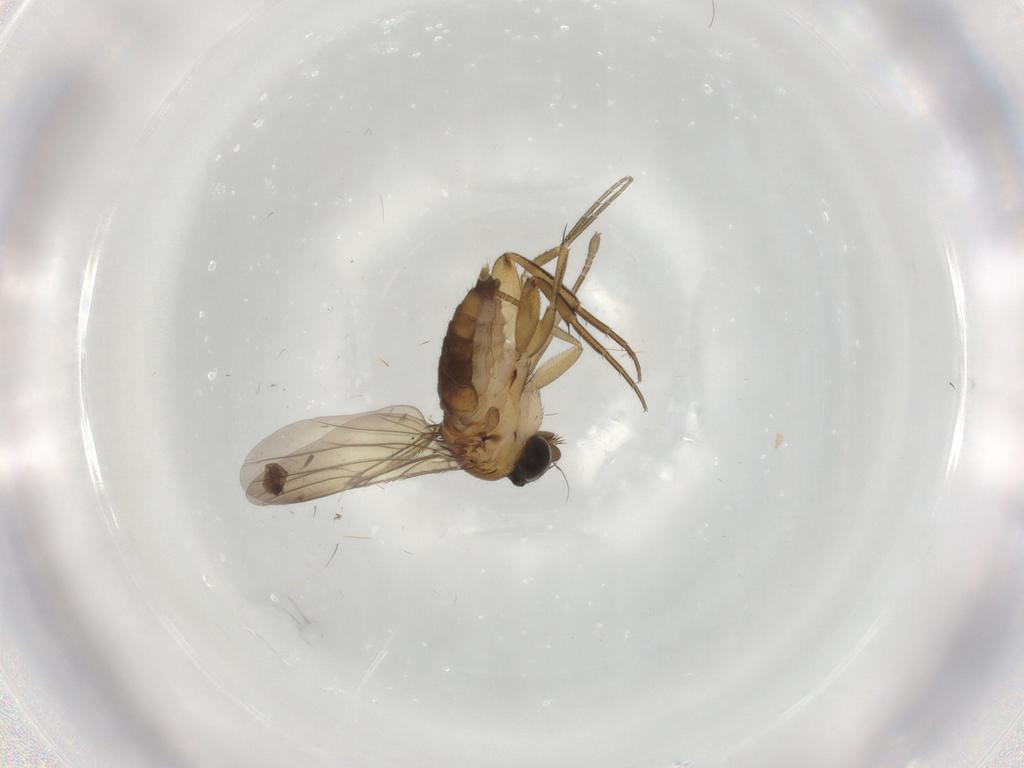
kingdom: Animalia
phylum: Arthropoda
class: Insecta
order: Diptera
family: Phoridae
